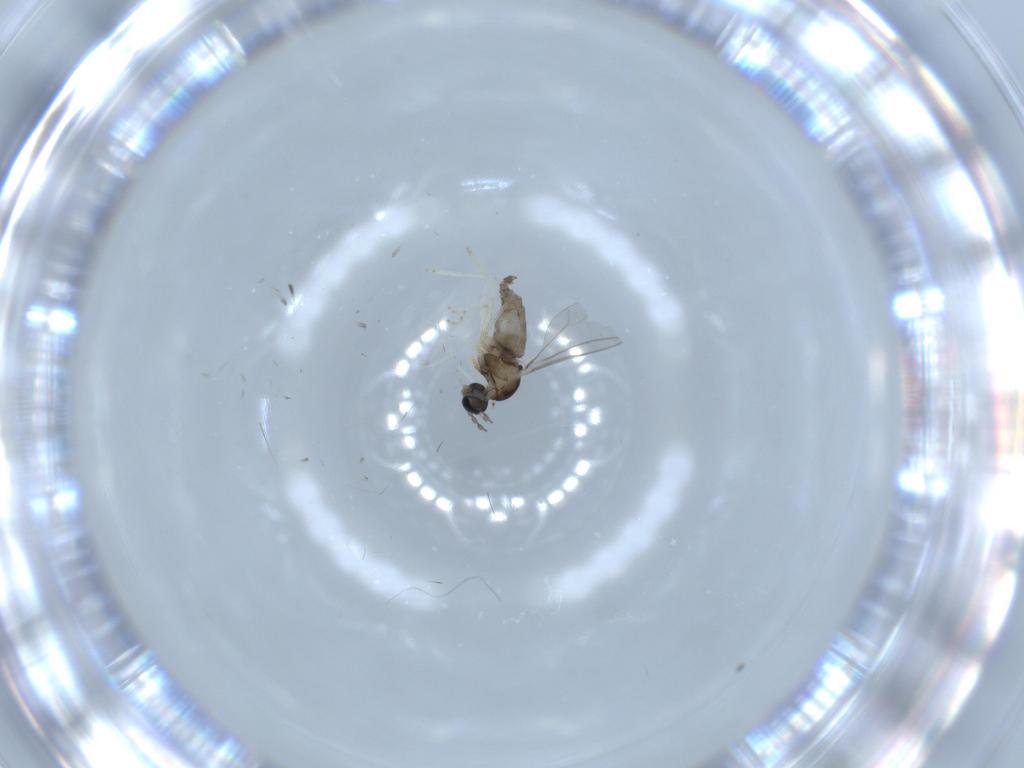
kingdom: Animalia
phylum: Arthropoda
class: Insecta
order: Diptera
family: Chironomidae
